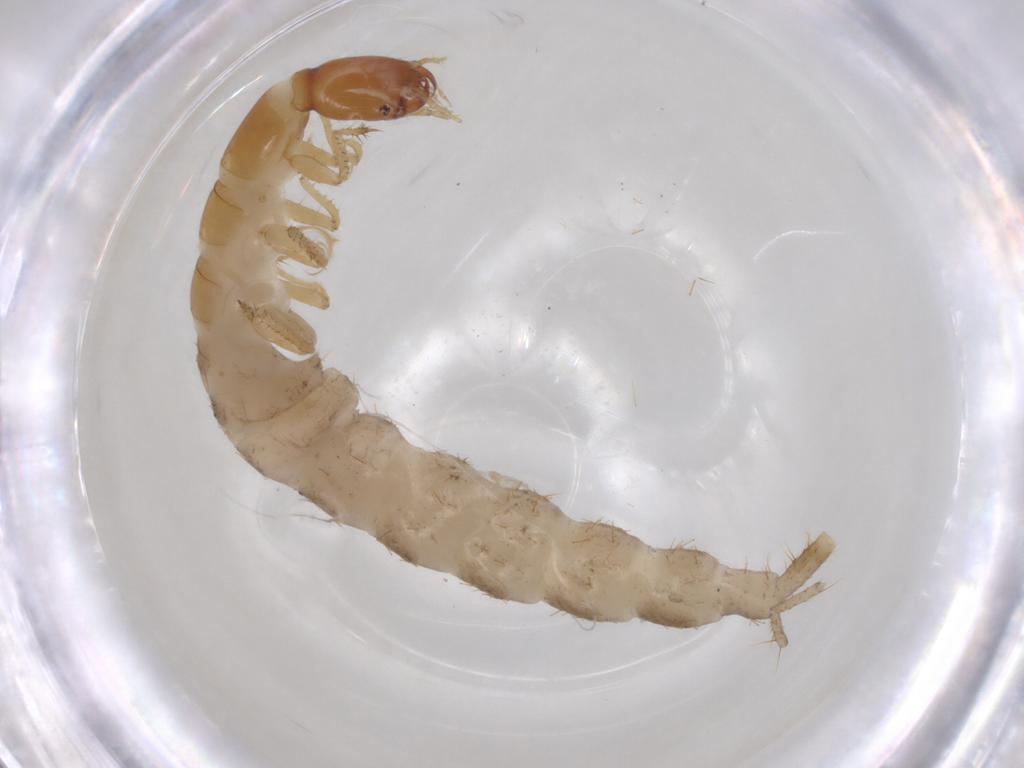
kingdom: Animalia
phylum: Arthropoda
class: Insecta
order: Coleoptera
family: Staphylinidae
